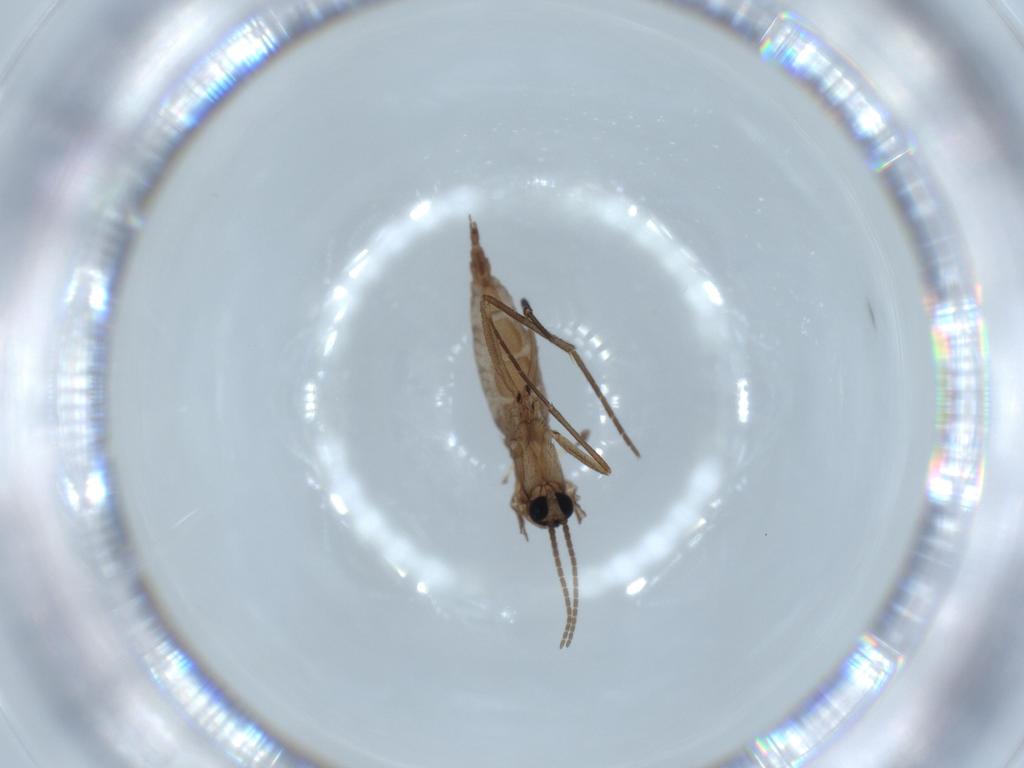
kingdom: Animalia
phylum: Arthropoda
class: Insecta
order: Diptera
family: Sciaridae
